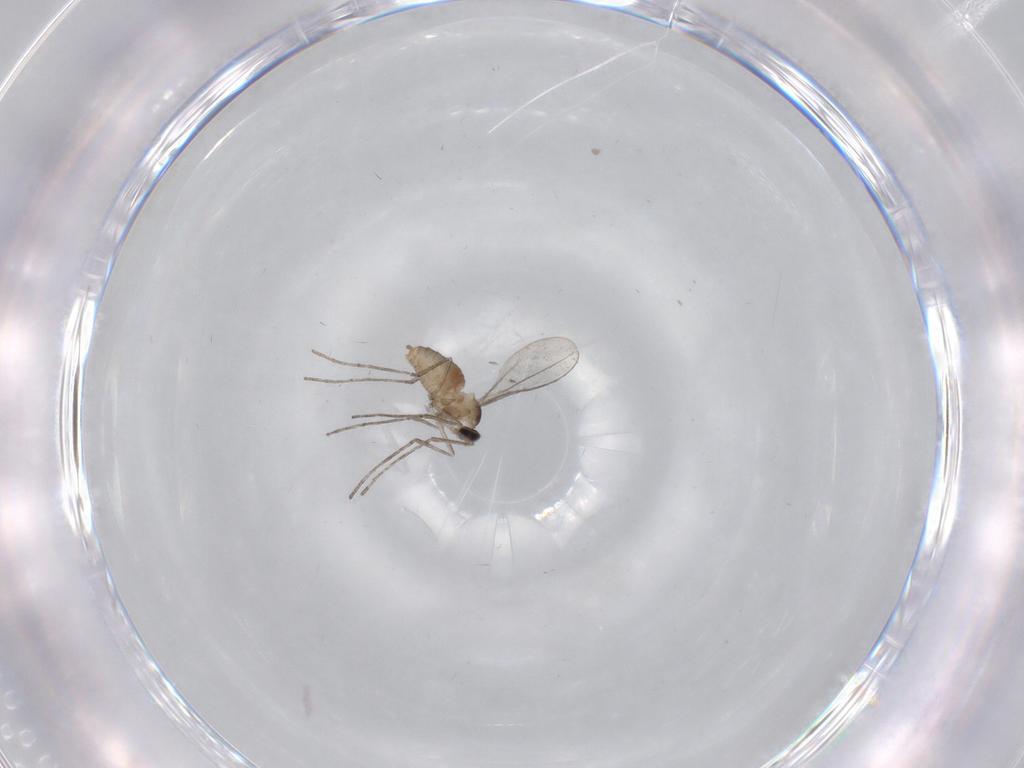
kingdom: Animalia
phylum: Arthropoda
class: Insecta
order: Diptera
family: Cecidomyiidae
